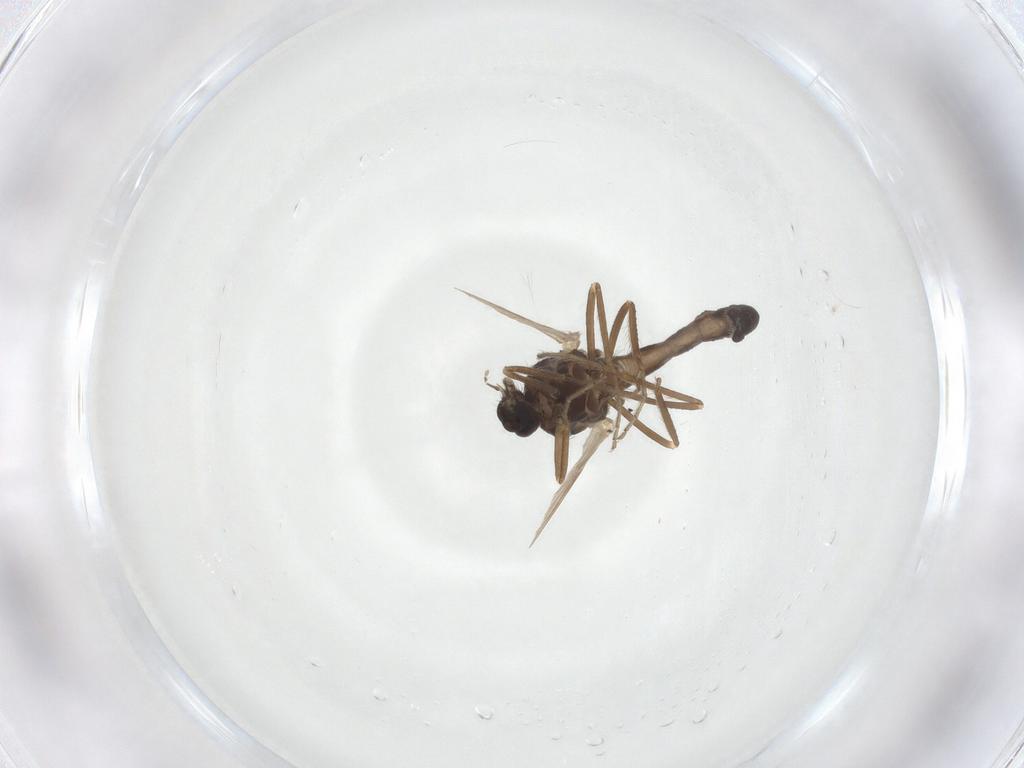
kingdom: Animalia
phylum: Arthropoda
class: Insecta
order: Diptera
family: Ceratopogonidae
